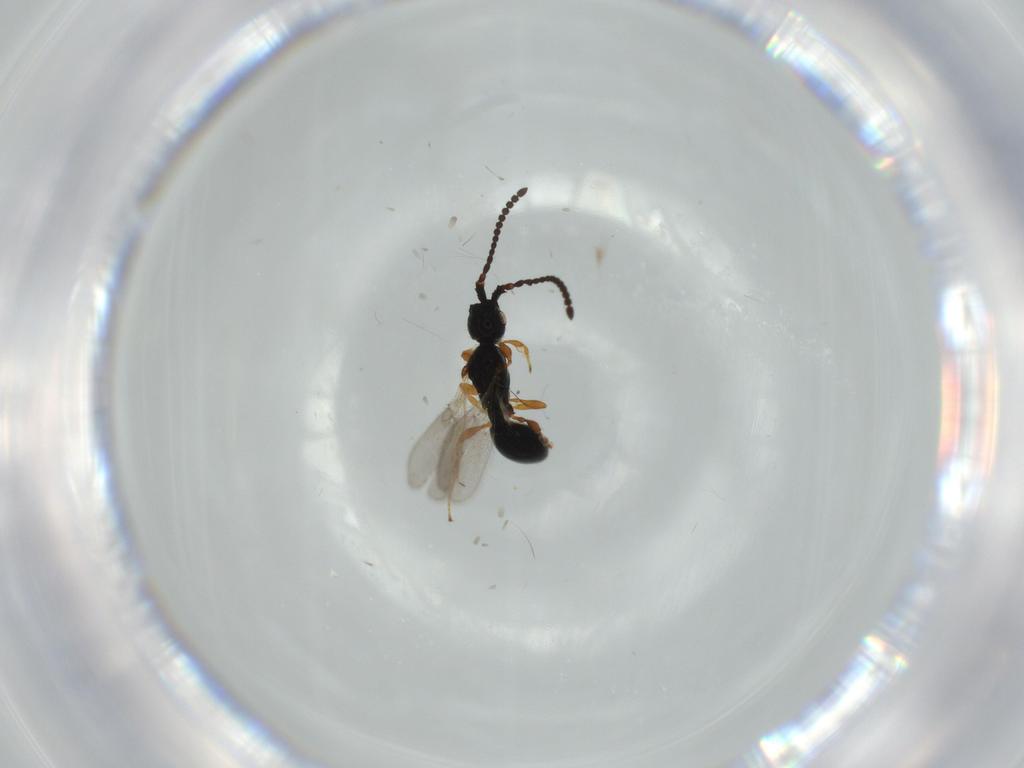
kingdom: Animalia
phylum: Arthropoda
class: Insecta
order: Hymenoptera
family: Diapriidae
